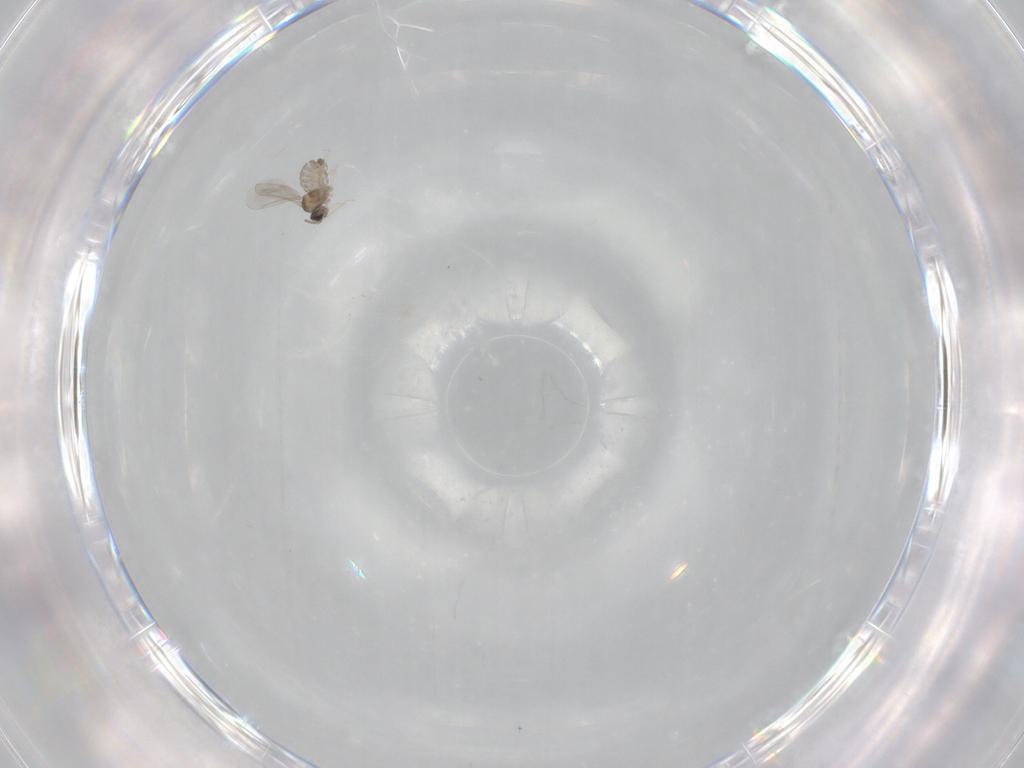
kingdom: Animalia
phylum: Arthropoda
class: Insecta
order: Diptera
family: Cecidomyiidae
